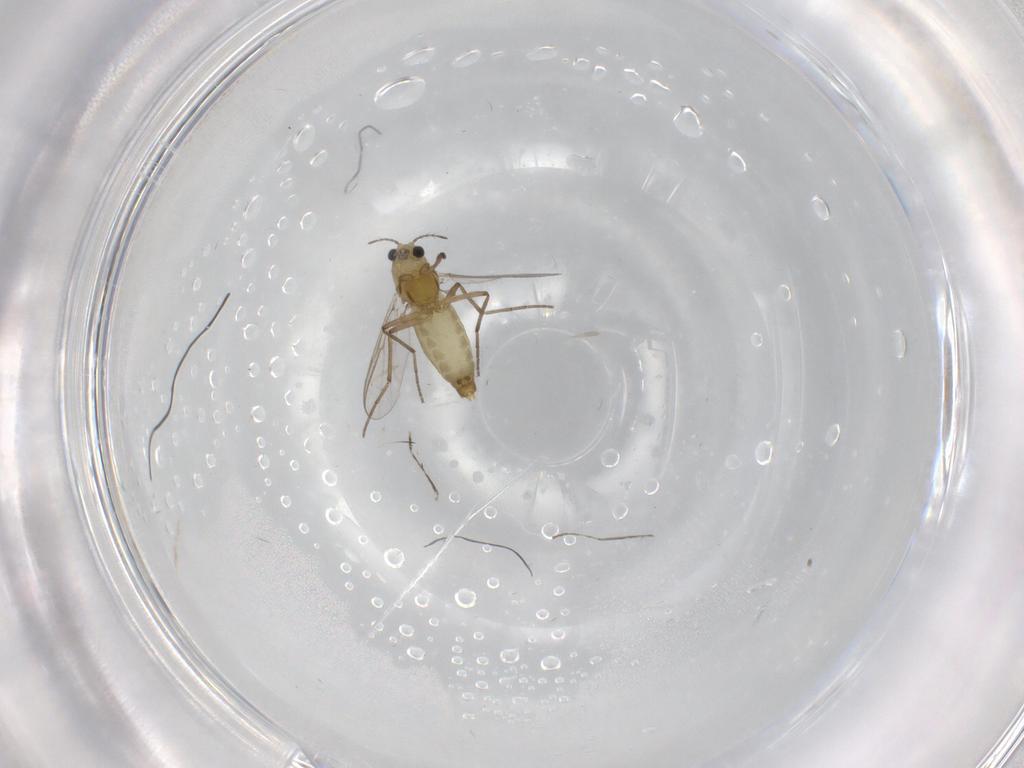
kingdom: Animalia
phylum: Arthropoda
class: Insecta
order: Diptera
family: Chironomidae
